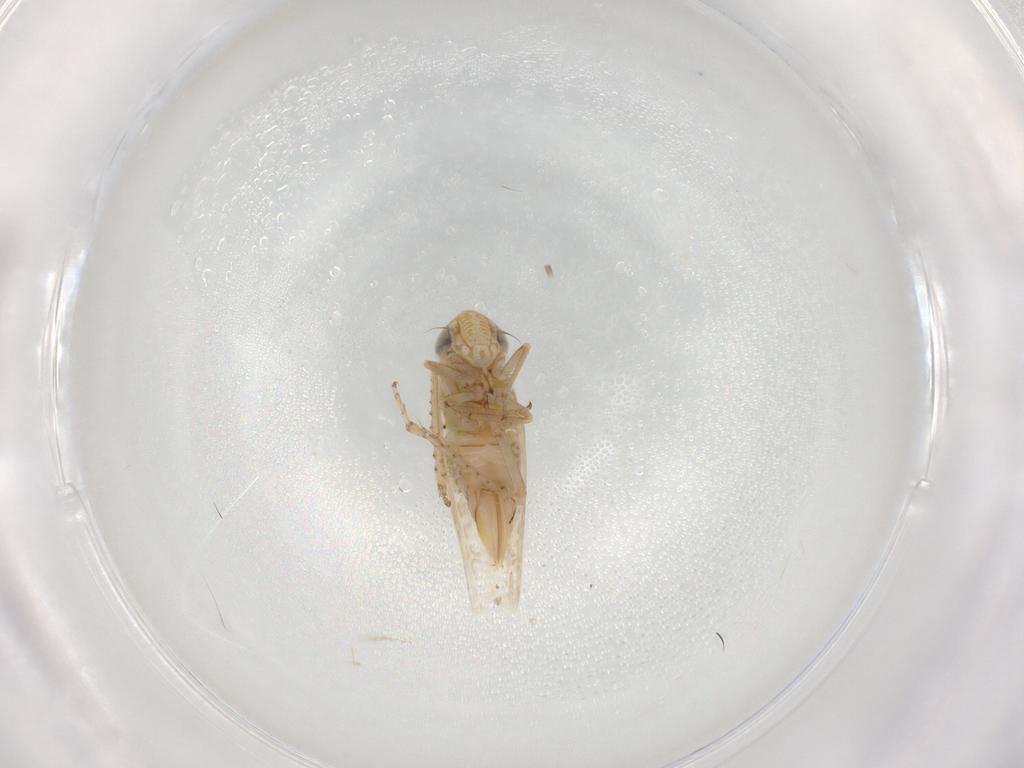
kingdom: Animalia
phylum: Arthropoda
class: Insecta
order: Hemiptera
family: Cicadellidae
